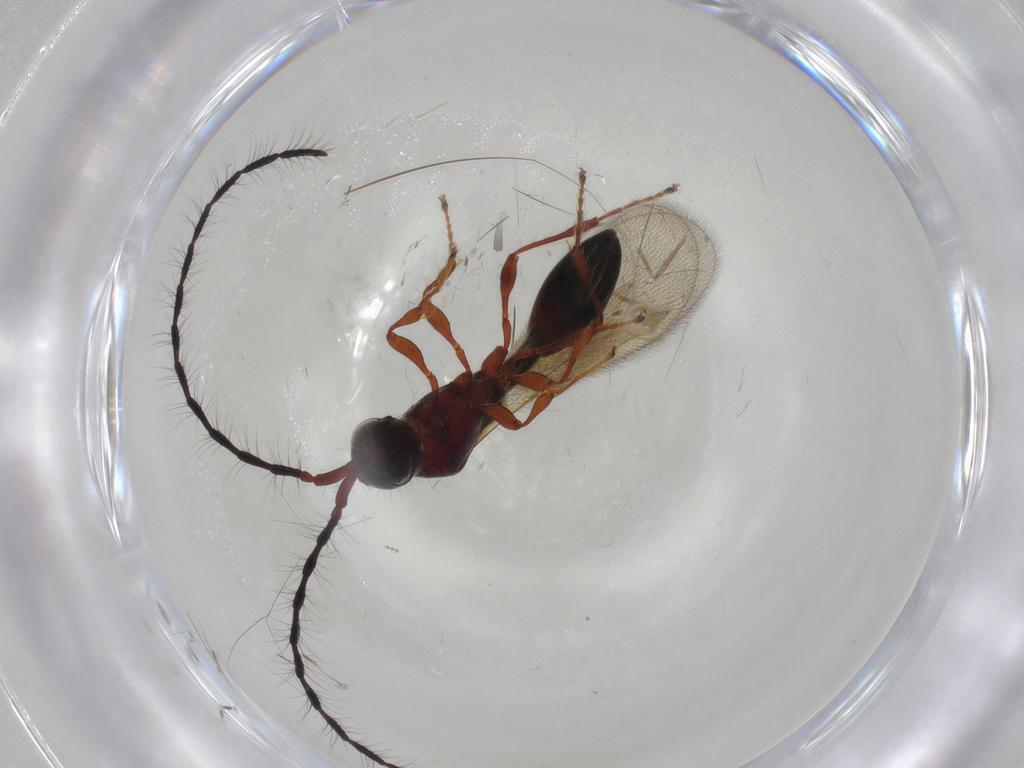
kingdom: Animalia
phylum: Arthropoda
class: Insecta
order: Hymenoptera
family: Diapriidae
